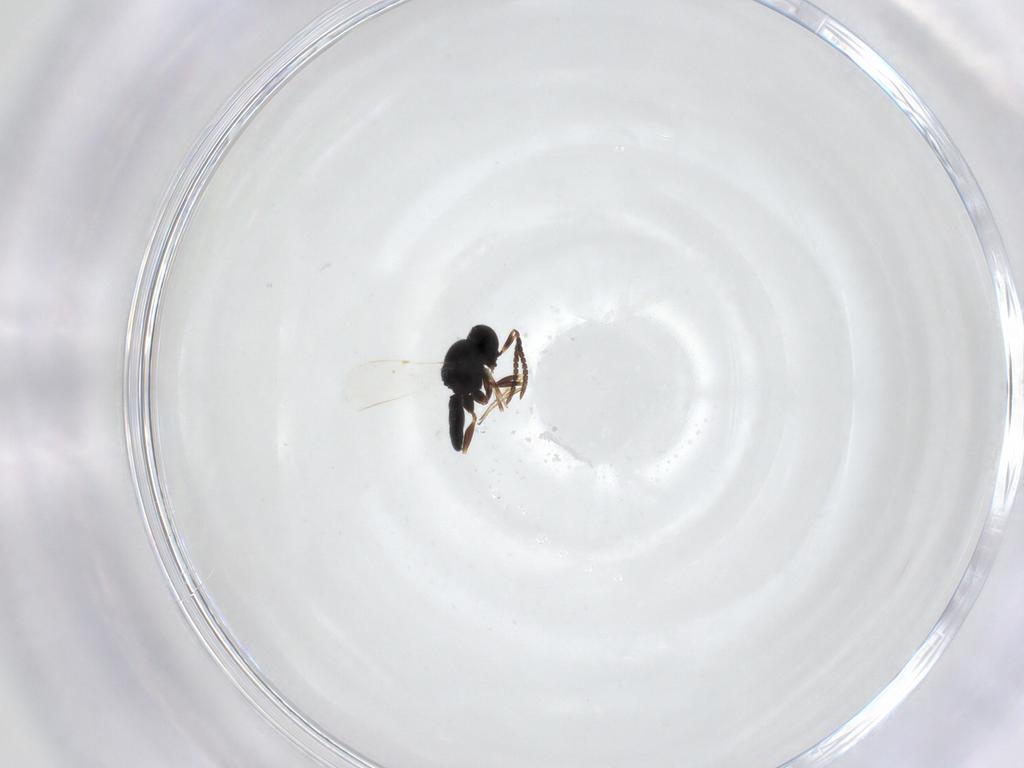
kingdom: Animalia
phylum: Arthropoda
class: Insecta
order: Hymenoptera
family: Scelionidae
